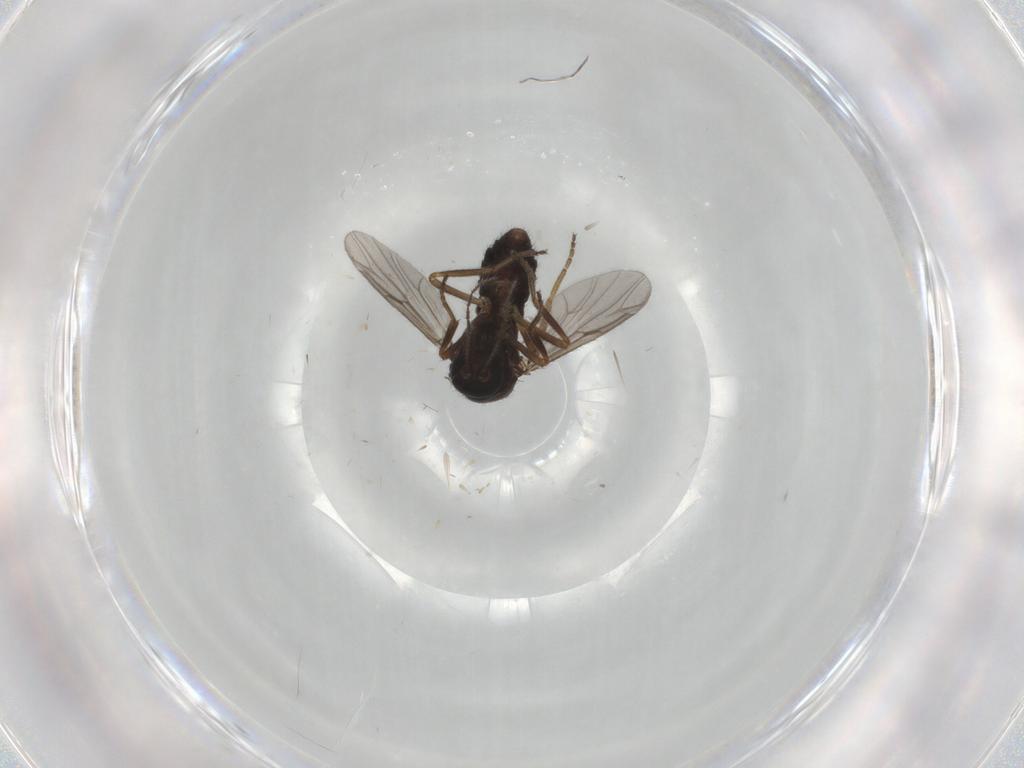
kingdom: Animalia
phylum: Arthropoda
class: Insecta
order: Diptera
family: Ceratopogonidae
